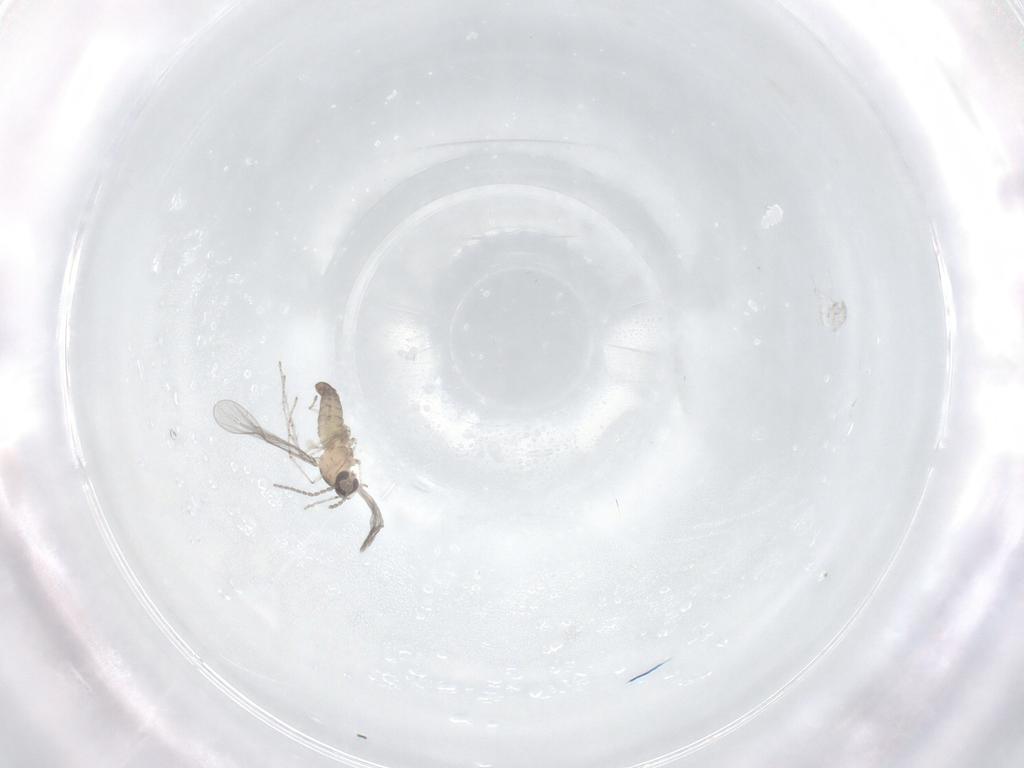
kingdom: Animalia
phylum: Arthropoda
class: Insecta
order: Diptera
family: Cecidomyiidae
